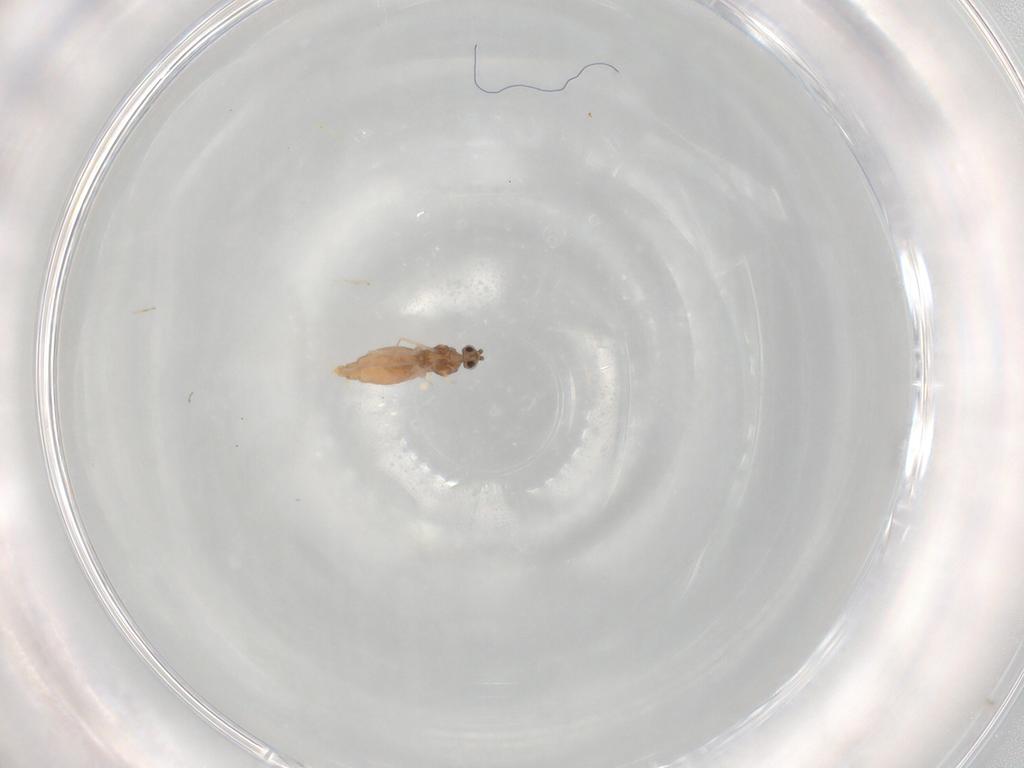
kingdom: Animalia
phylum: Arthropoda
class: Insecta
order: Diptera
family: Cecidomyiidae
